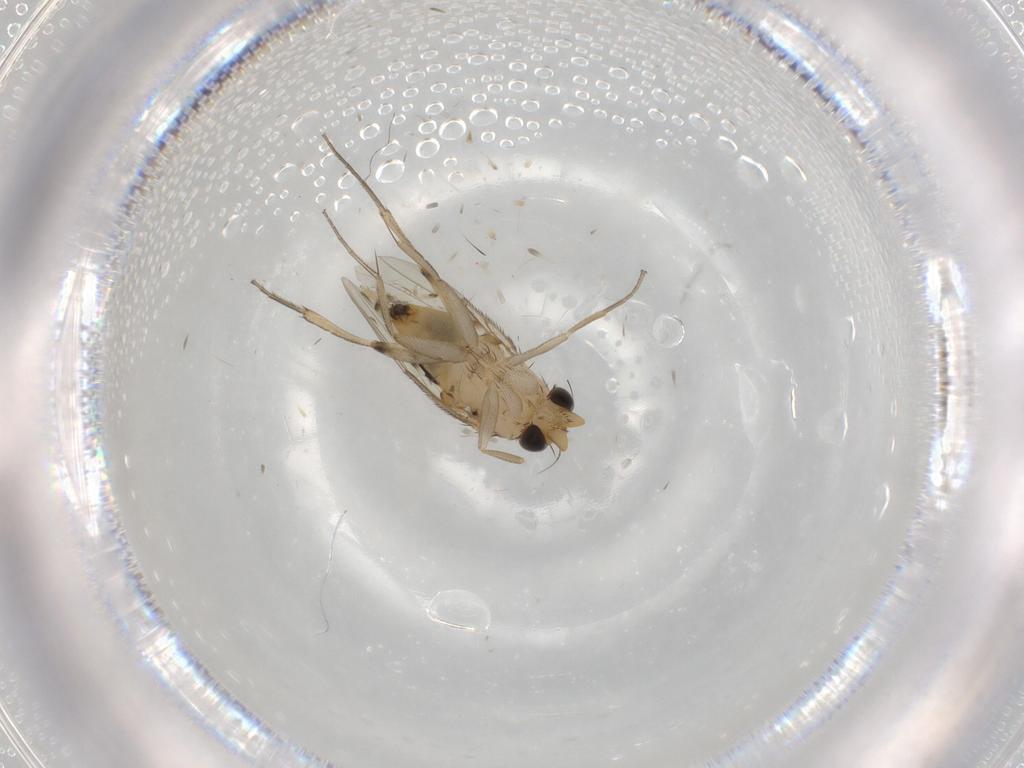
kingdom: Animalia
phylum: Arthropoda
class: Insecta
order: Diptera
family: Phoridae
